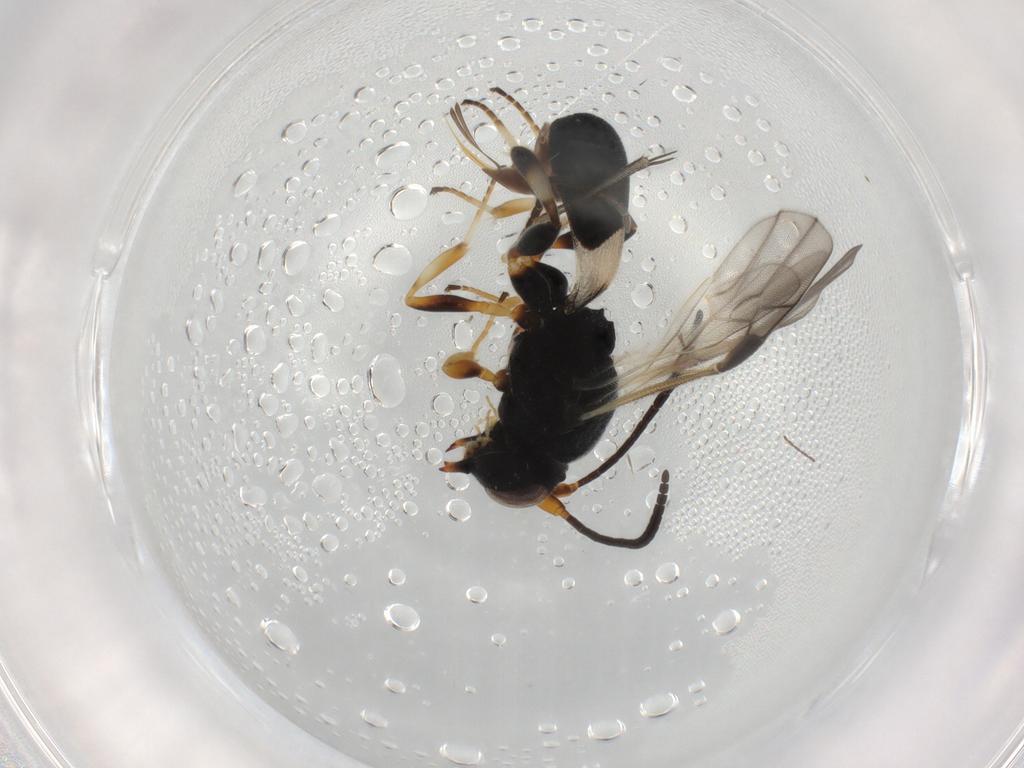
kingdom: Animalia
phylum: Arthropoda
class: Insecta
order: Hymenoptera
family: Braconidae
